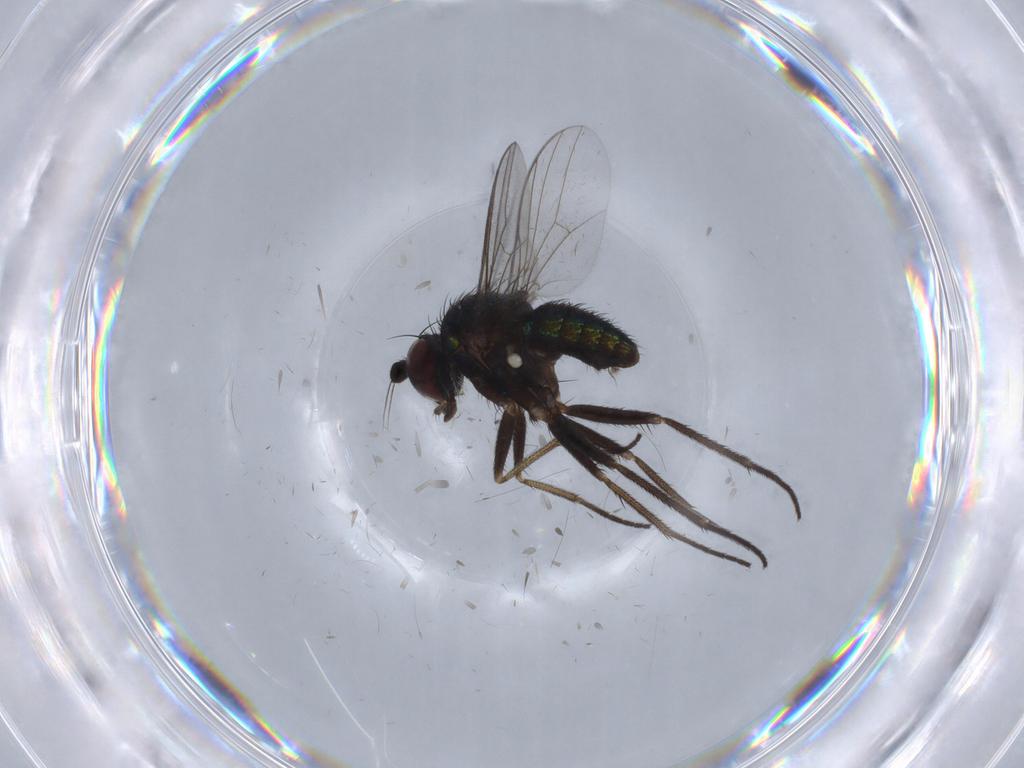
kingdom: Animalia
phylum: Arthropoda
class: Insecta
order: Diptera
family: Dolichopodidae
